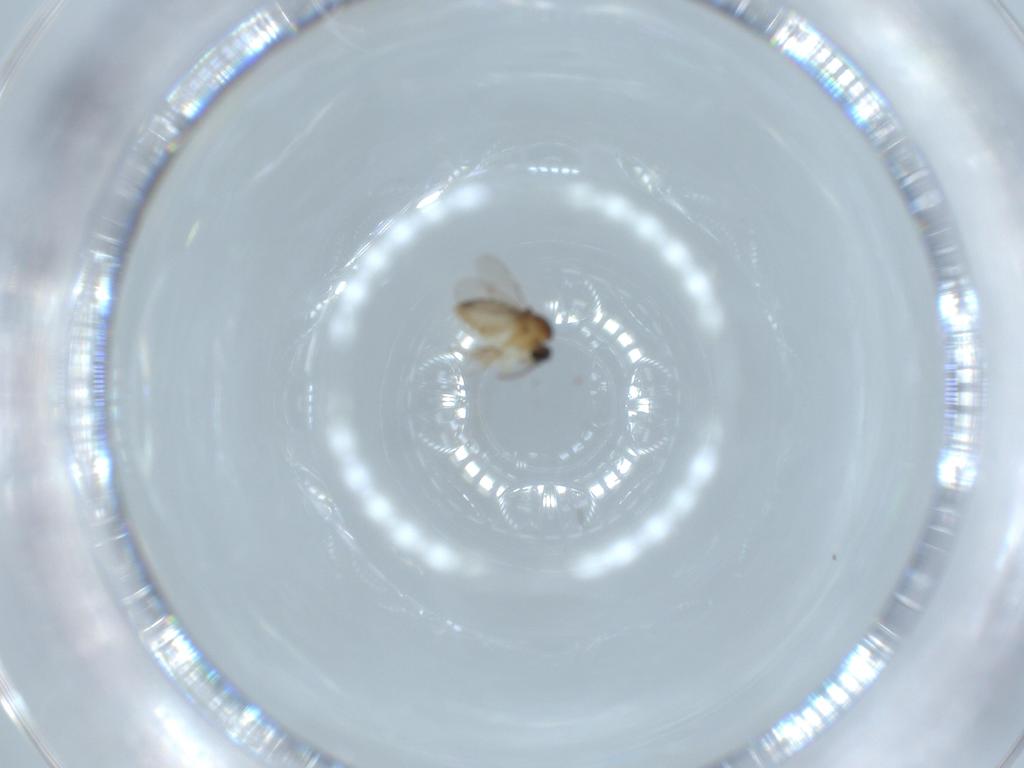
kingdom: Animalia
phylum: Arthropoda
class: Insecta
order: Diptera
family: Ceratopogonidae
